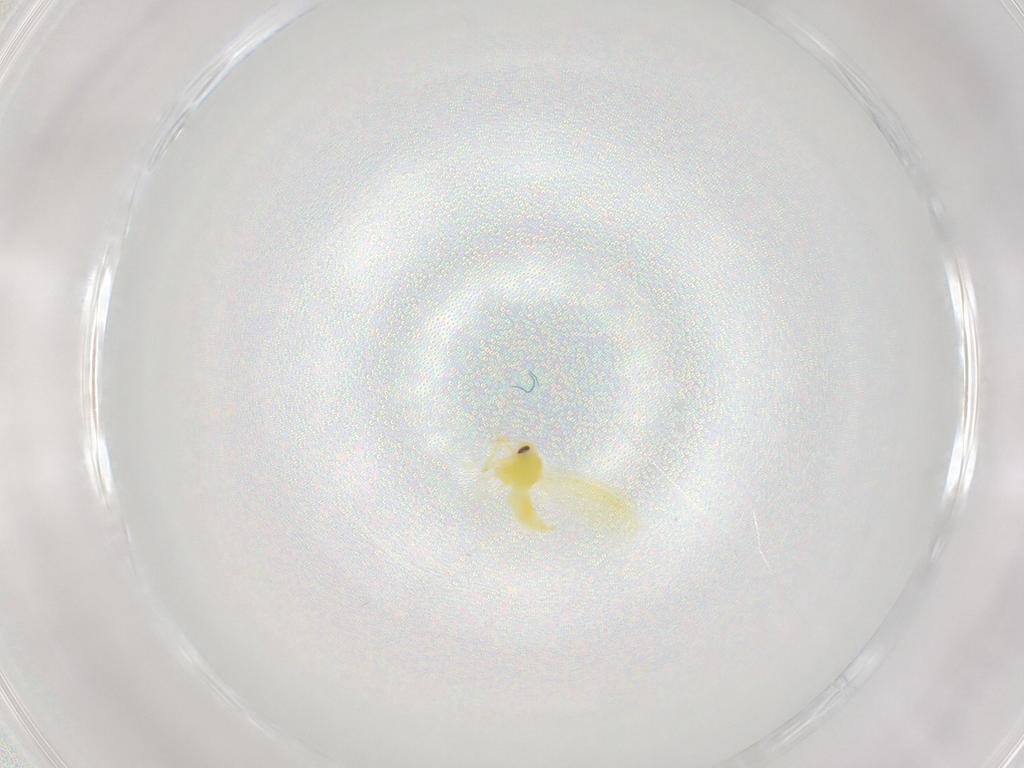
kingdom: Animalia
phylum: Arthropoda
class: Insecta
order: Hemiptera
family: Aleyrodidae
